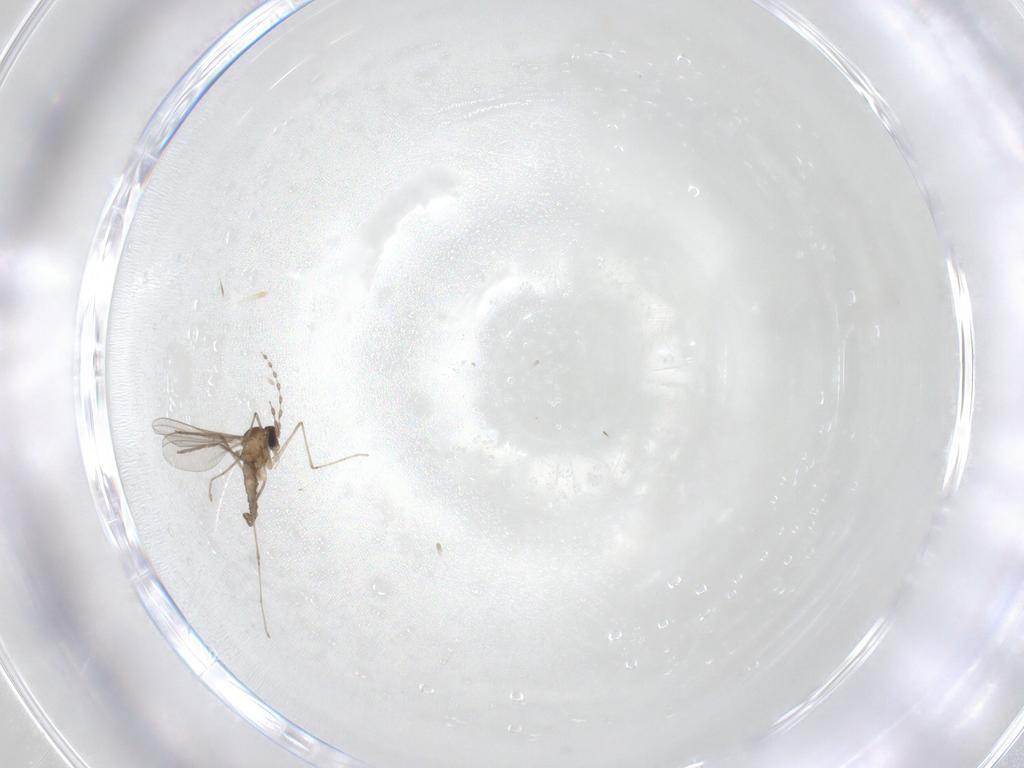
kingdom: Animalia
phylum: Arthropoda
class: Insecta
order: Diptera
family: Cecidomyiidae
